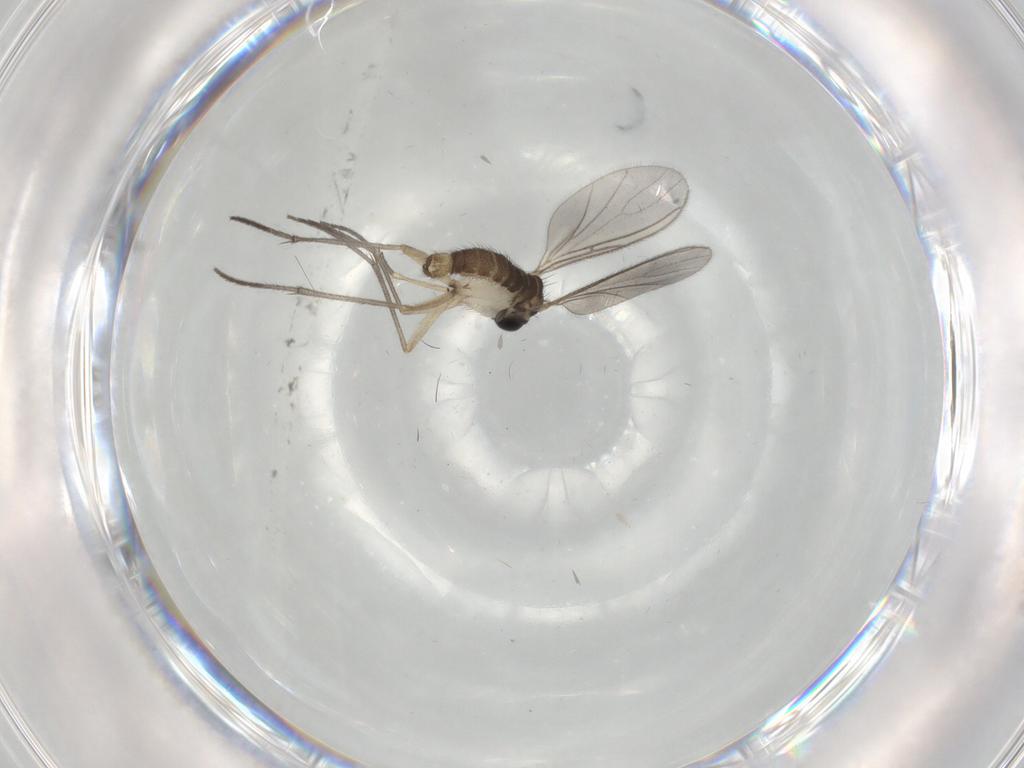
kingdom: Animalia
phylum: Arthropoda
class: Insecta
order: Diptera
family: Sciaridae
